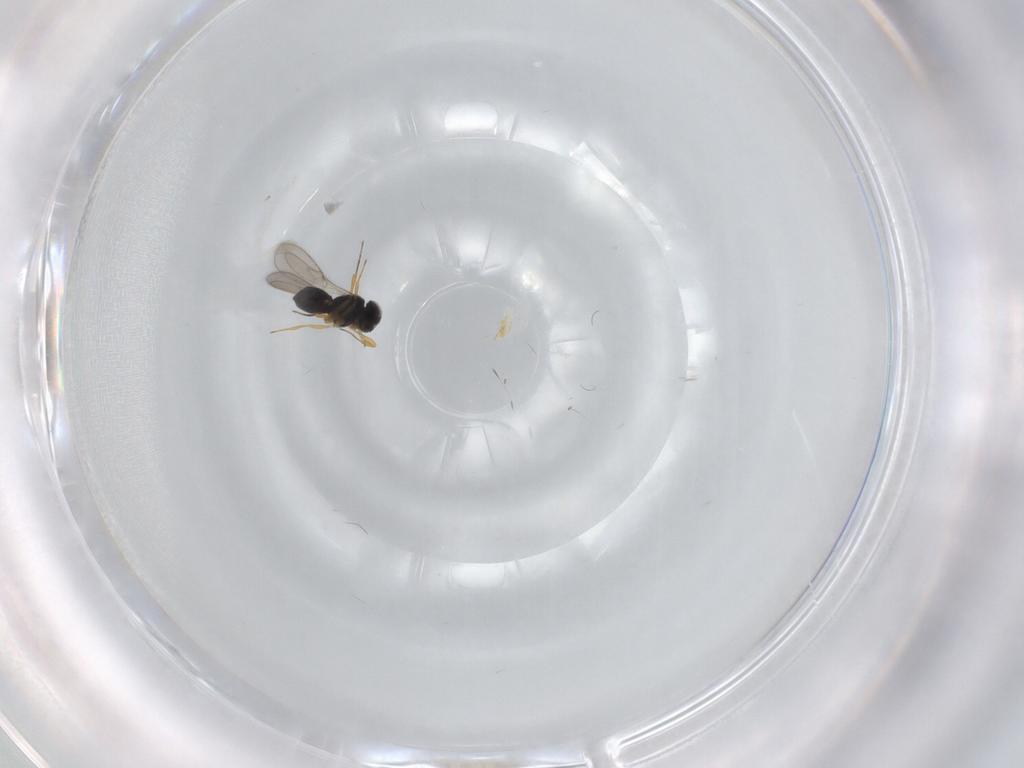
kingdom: Animalia
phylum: Arthropoda
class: Insecta
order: Hymenoptera
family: Scelionidae
